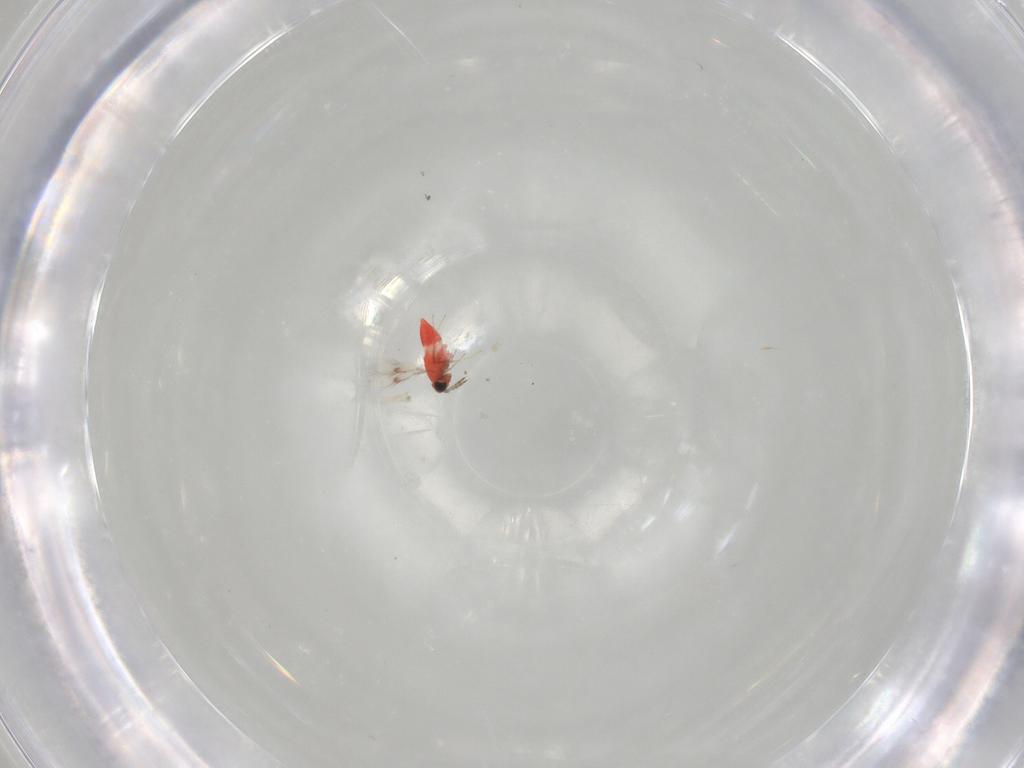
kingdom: Animalia
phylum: Arthropoda
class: Insecta
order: Hymenoptera
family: Trichogrammatidae
